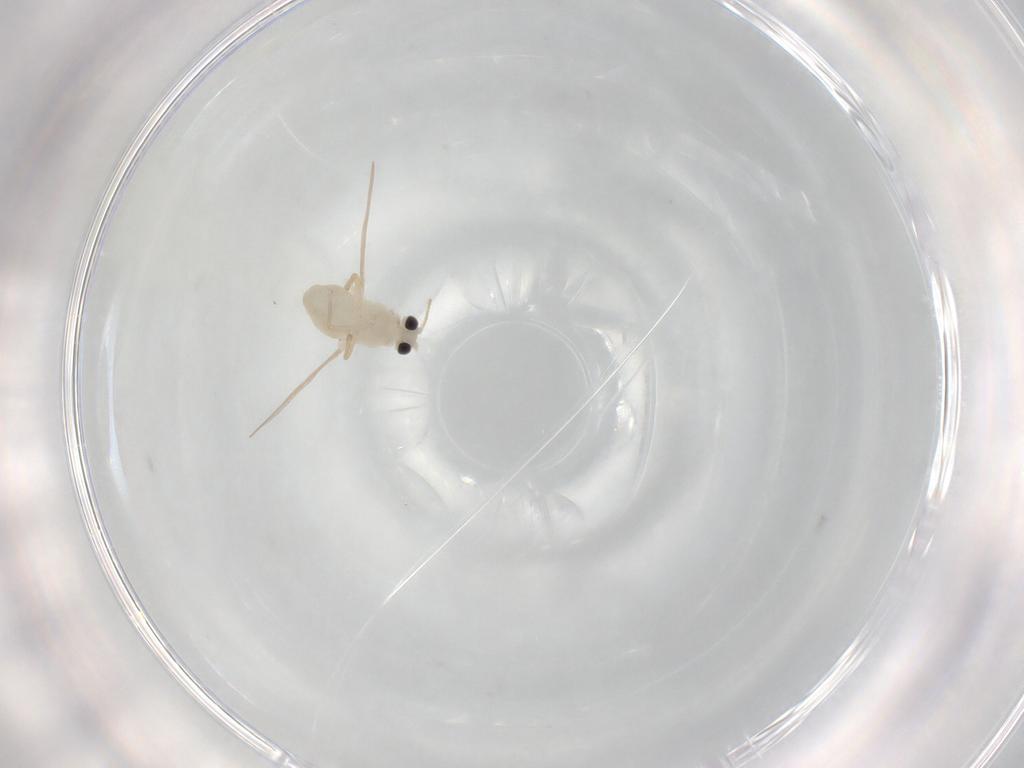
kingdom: Animalia
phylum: Arthropoda
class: Insecta
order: Diptera
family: Chironomidae
